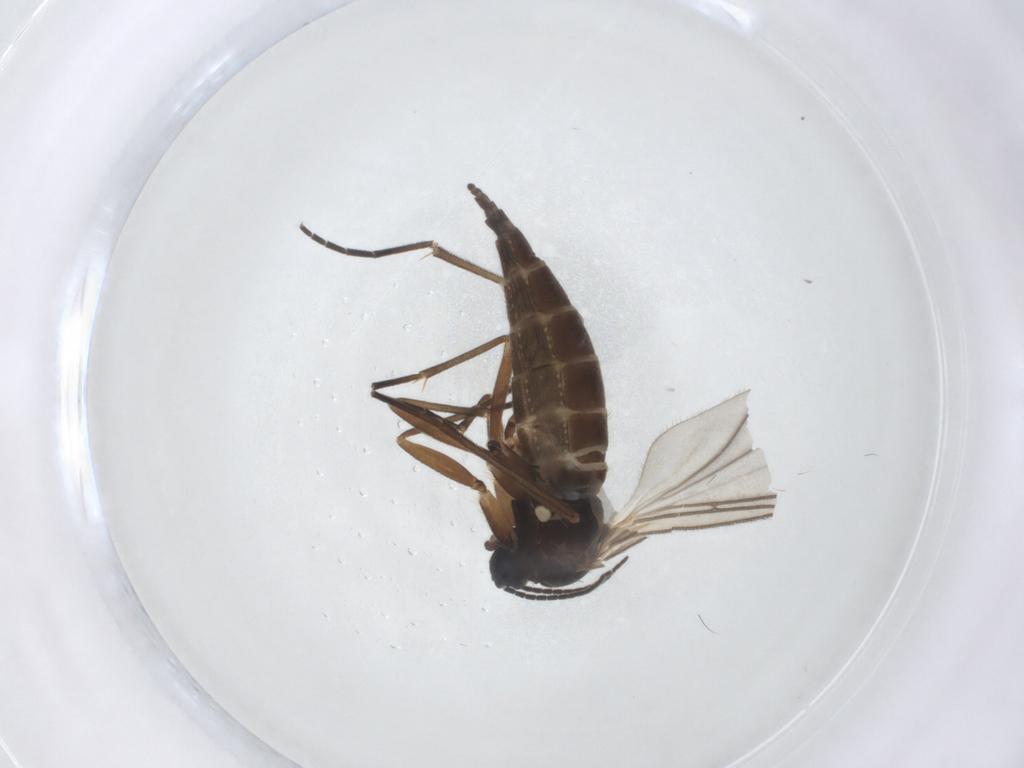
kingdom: Animalia
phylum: Arthropoda
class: Insecta
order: Diptera
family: Sciaridae
